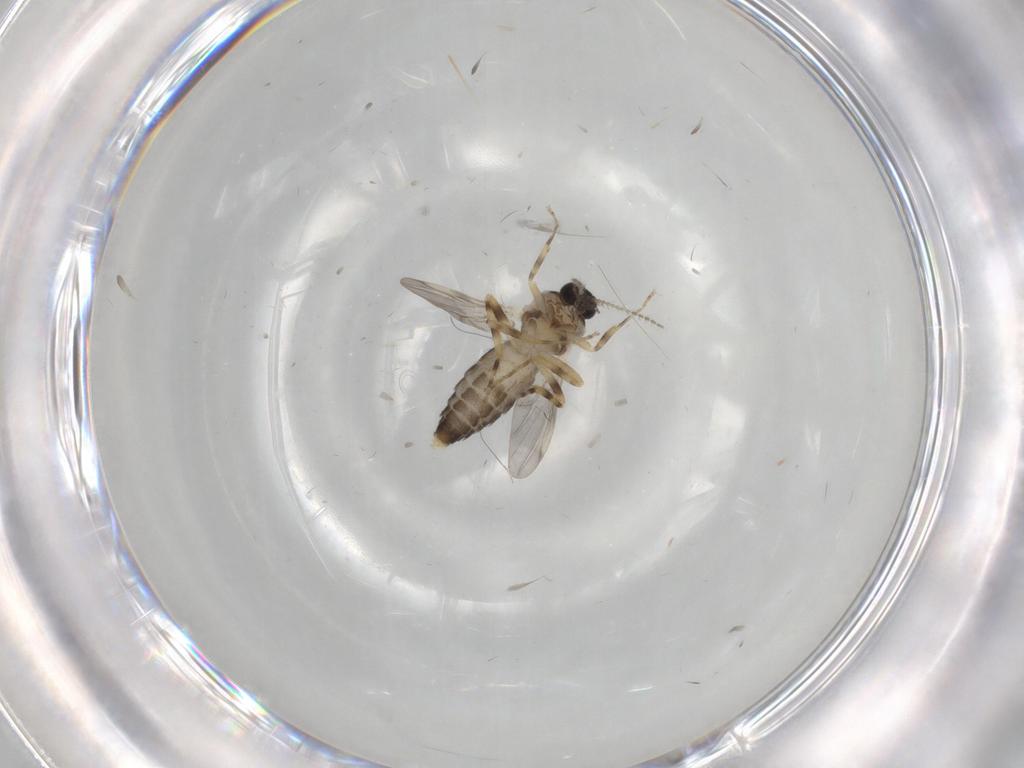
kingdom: Animalia
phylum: Arthropoda
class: Insecta
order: Diptera
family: Ceratopogonidae
